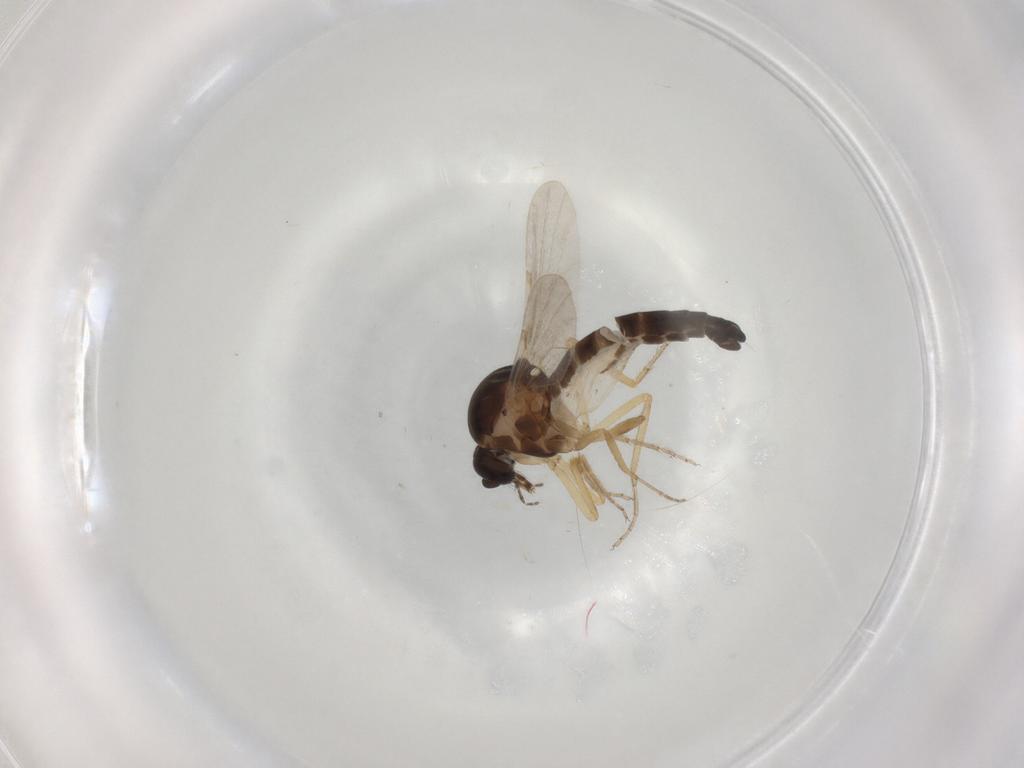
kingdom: Animalia
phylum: Arthropoda
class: Insecta
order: Diptera
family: Ceratopogonidae
